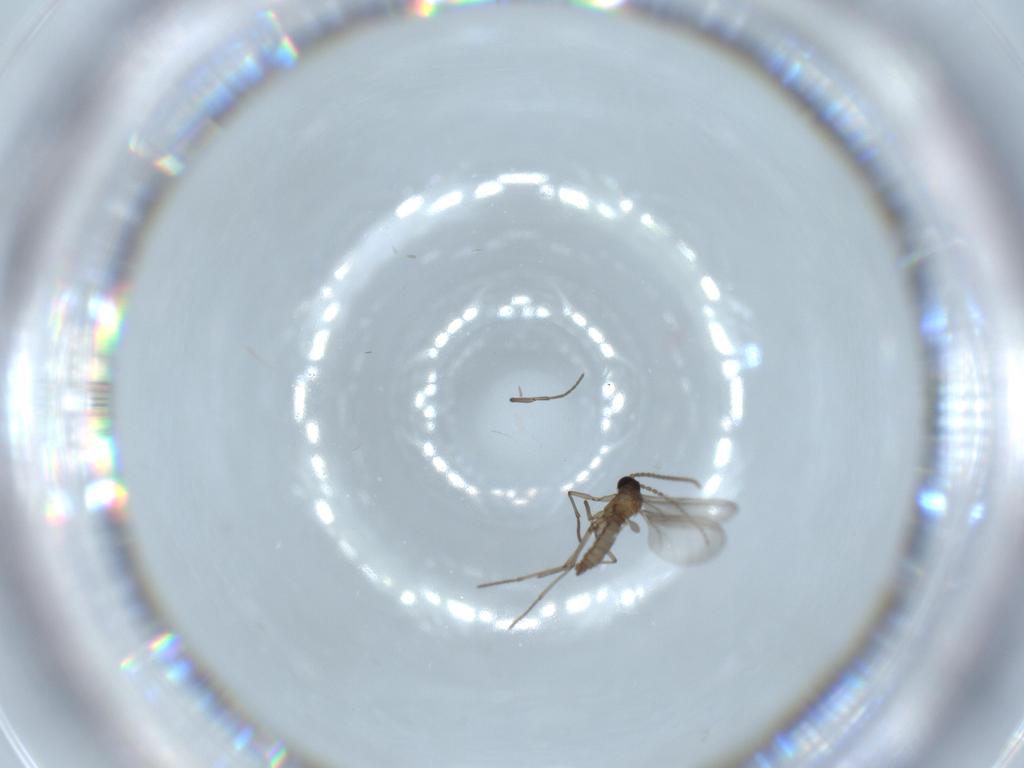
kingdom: Animalia
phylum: Arthropoda
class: Insecta
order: Diptera
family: Sciaridae
